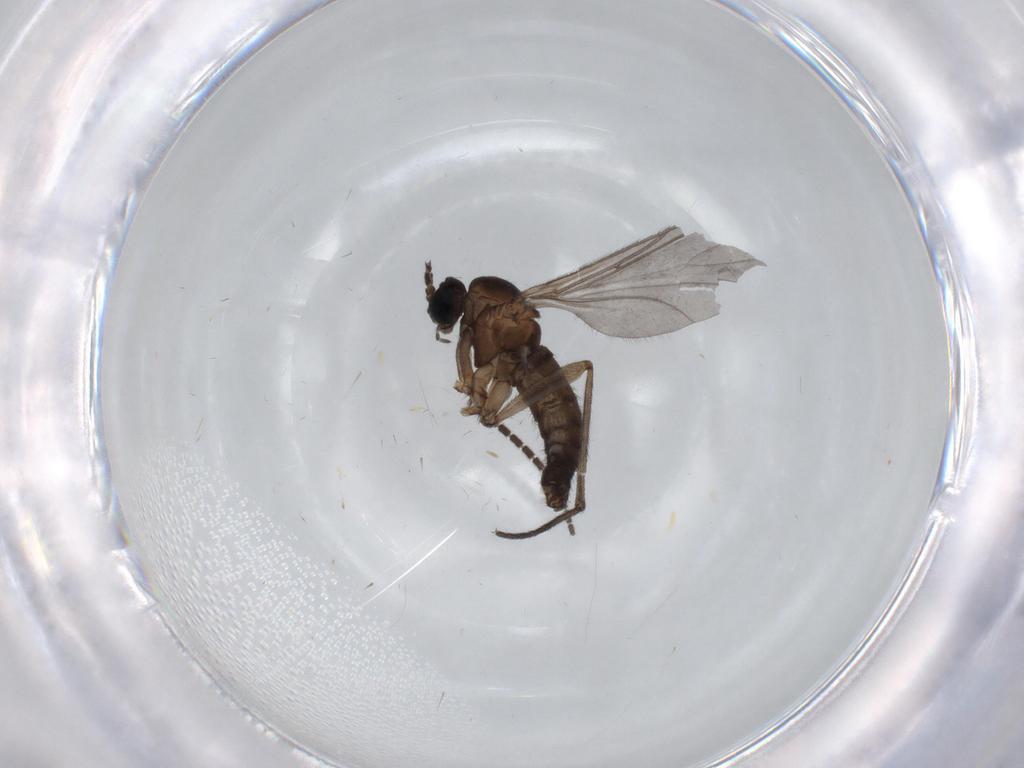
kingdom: Animalia
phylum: Arthropoda
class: Insecta
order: Diptera
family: Sciaridae
